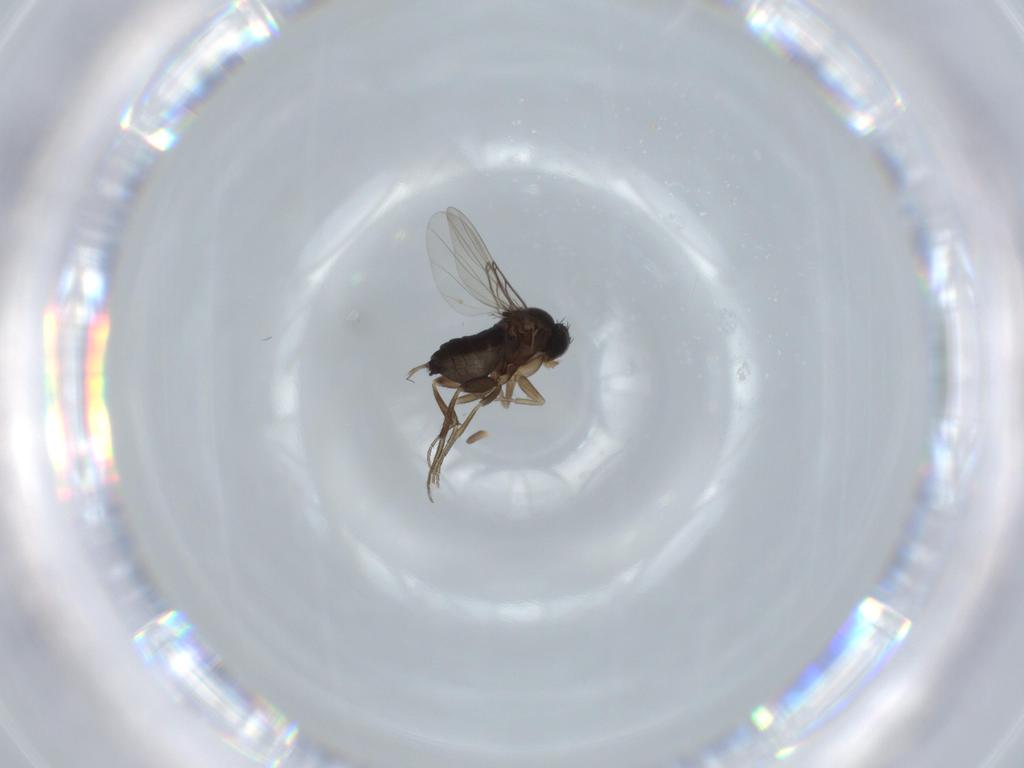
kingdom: Animalia
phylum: Arthropoda
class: Insecta
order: Diptera
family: Phoridae
